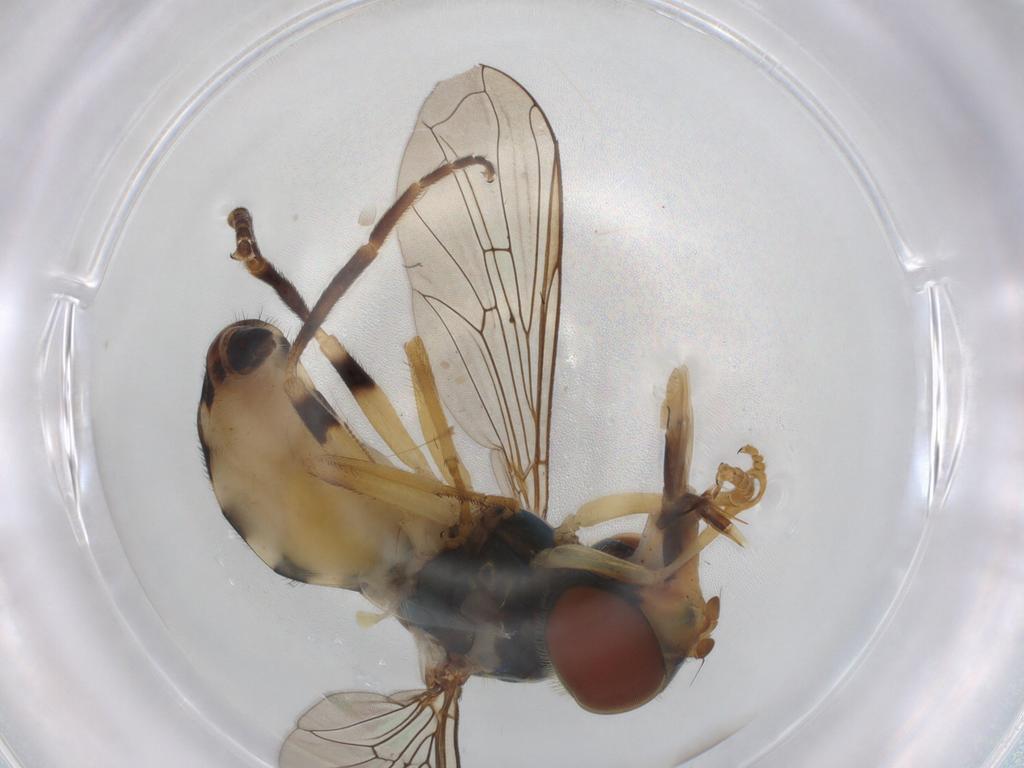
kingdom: Animalia
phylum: Arthropoda
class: Insecta
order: Diptera
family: Syrphidae
